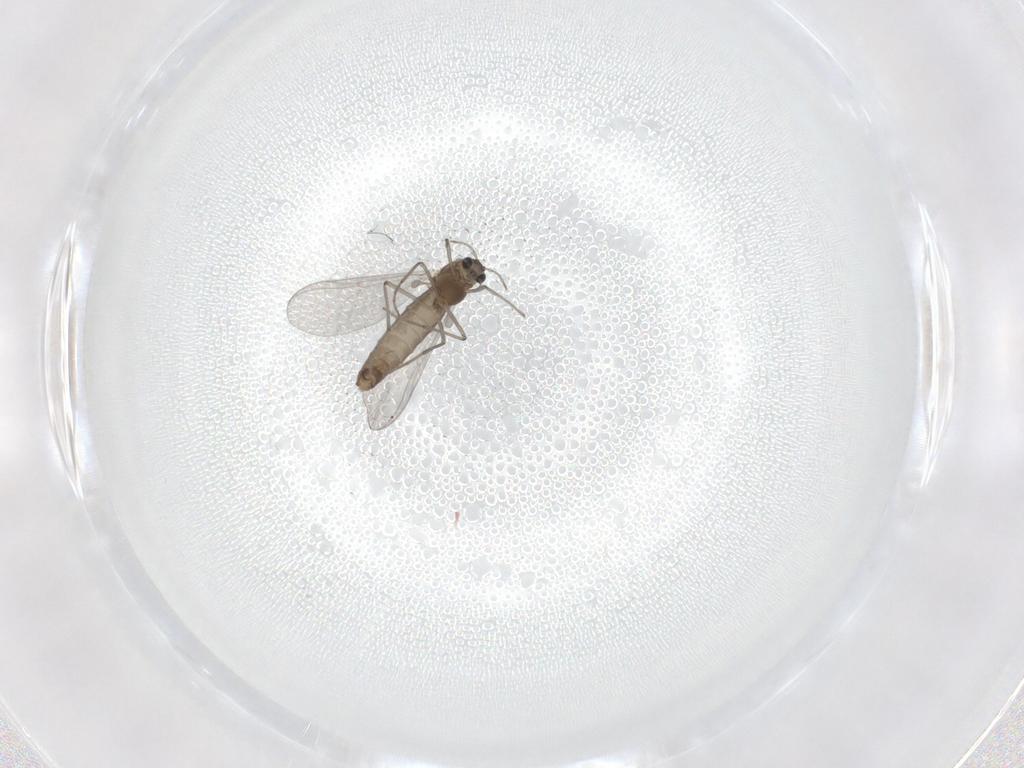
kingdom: Animalia
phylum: Arthropoda
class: Insecta
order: Diptera
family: Chironomidae
